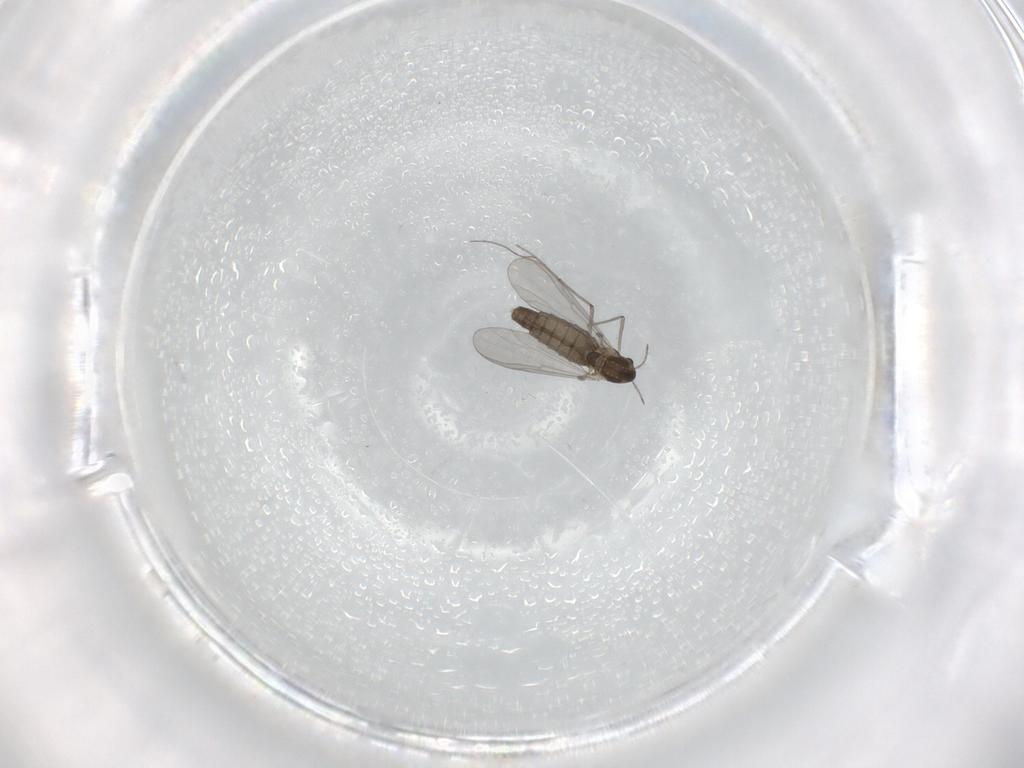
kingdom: Animalia
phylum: Arthropoda
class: Insecta
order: Diptera
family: Chironomidae
